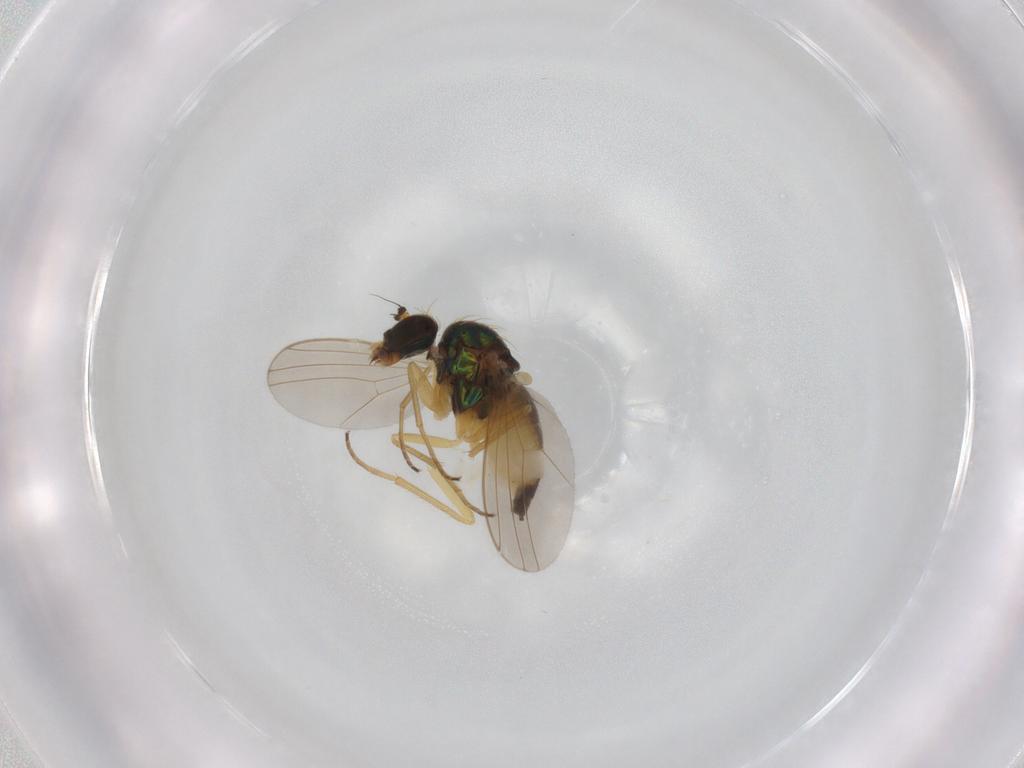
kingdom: Animalia
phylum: Arthropoda
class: Insecta
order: Diptera
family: Dolichopodidae
